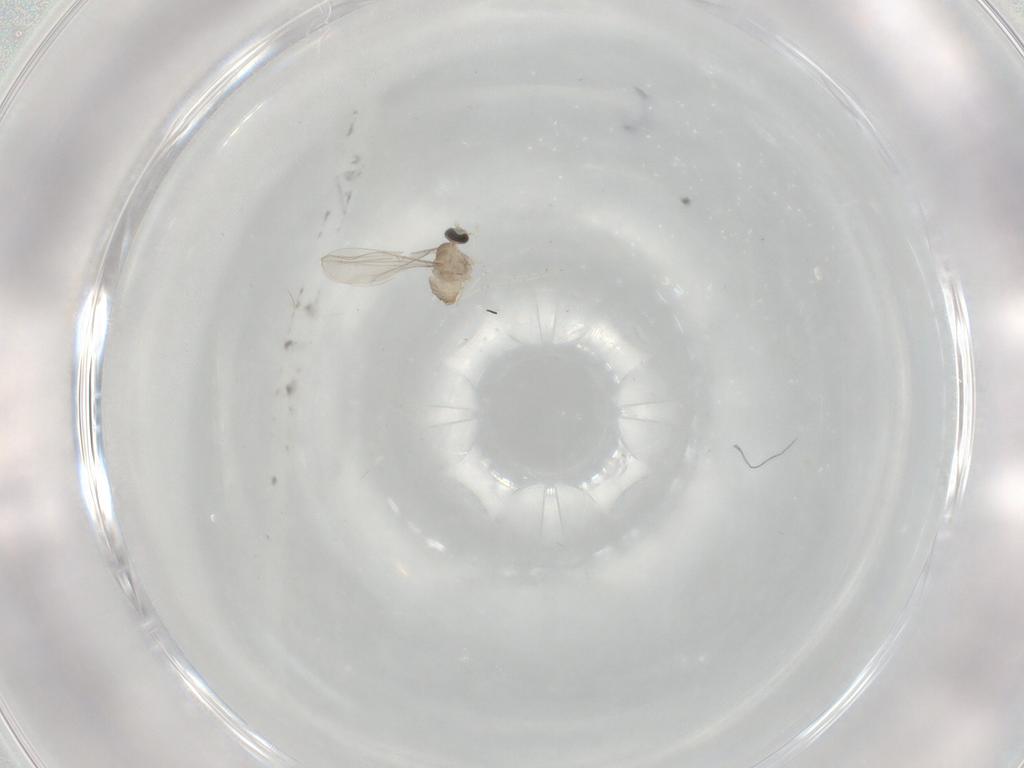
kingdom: Animalia
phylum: Arthropoda
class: Insecta
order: Diptera
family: Cecidomyiidae
